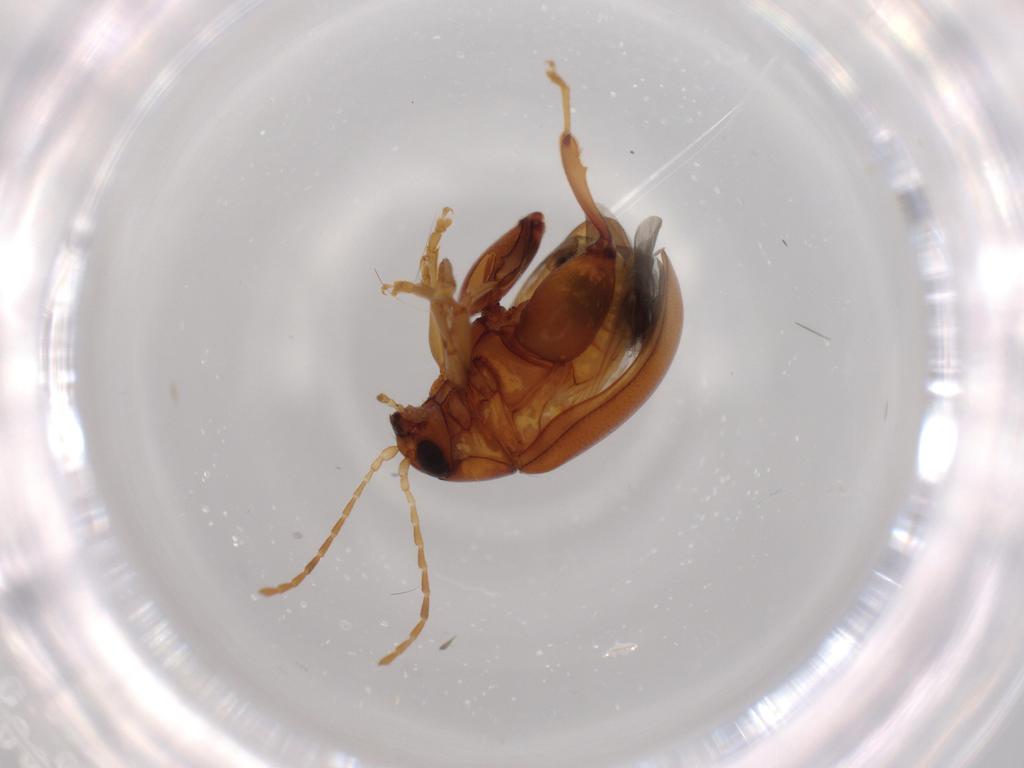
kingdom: Animalia
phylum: Arthropoda
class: Insecta
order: Coleoptera
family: Chrysomelidae
